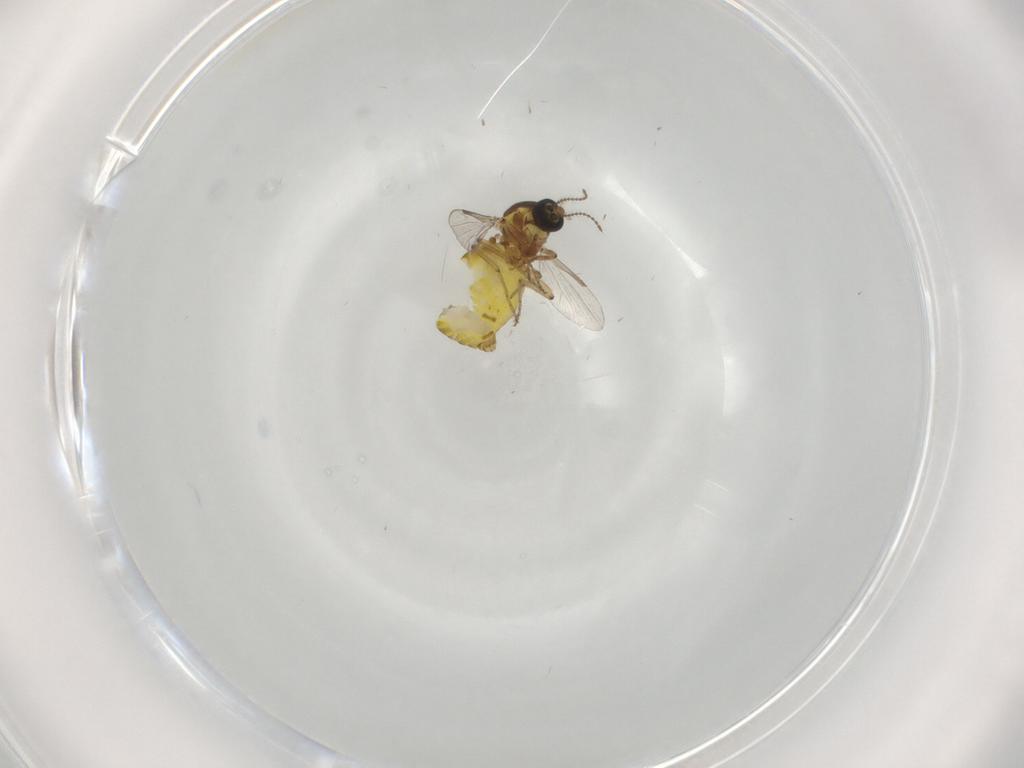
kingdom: Animalia
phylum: Arthropoda
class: Insecta
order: Diptera
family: Ceratopogonidae
